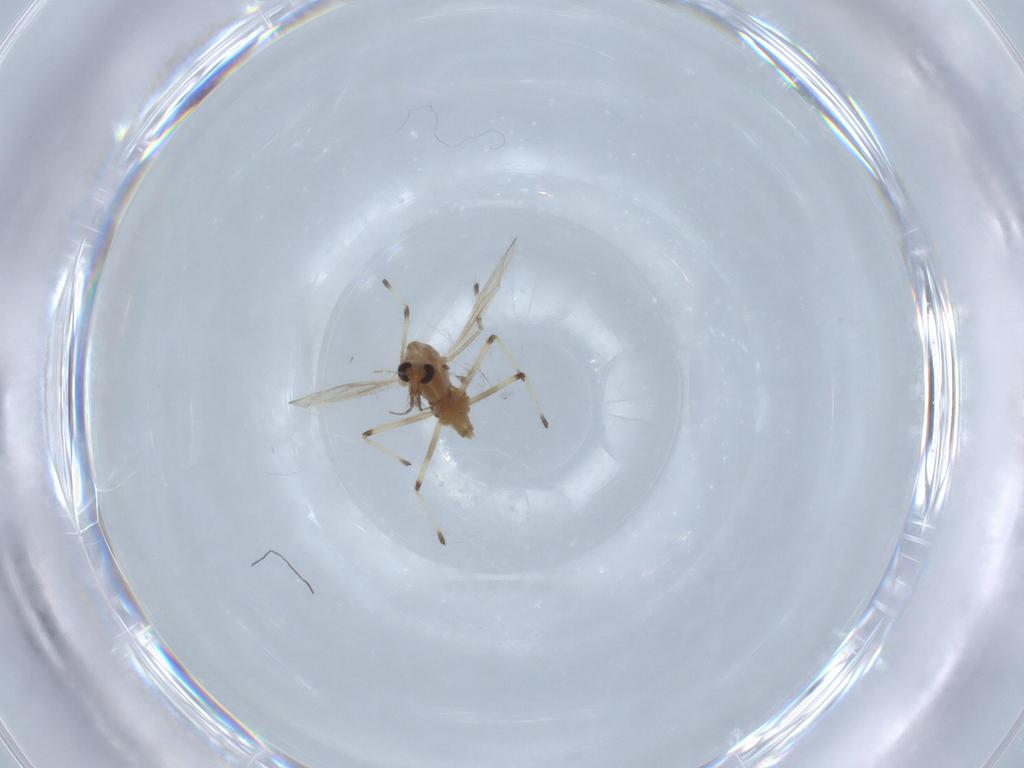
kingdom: Animalia
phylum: Arthropoda
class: Insecta
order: Diptera
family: Chironomidae
